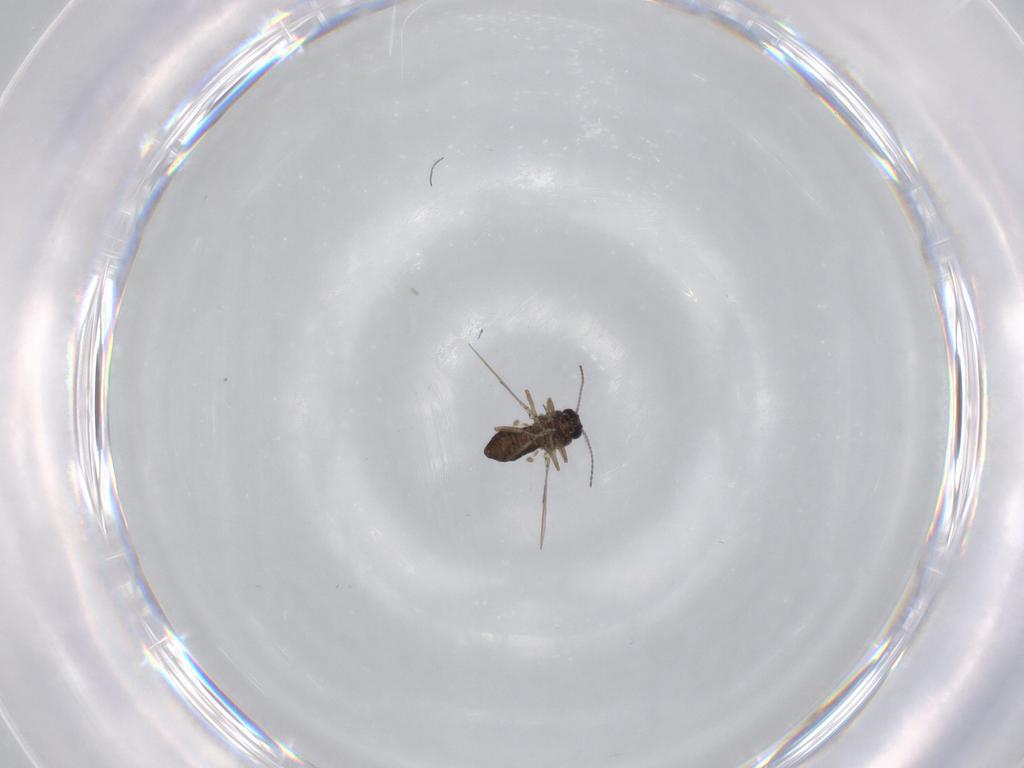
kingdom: Animalia
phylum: Arthropoda
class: Insecta
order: Diptera
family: Ceratopogonidae
